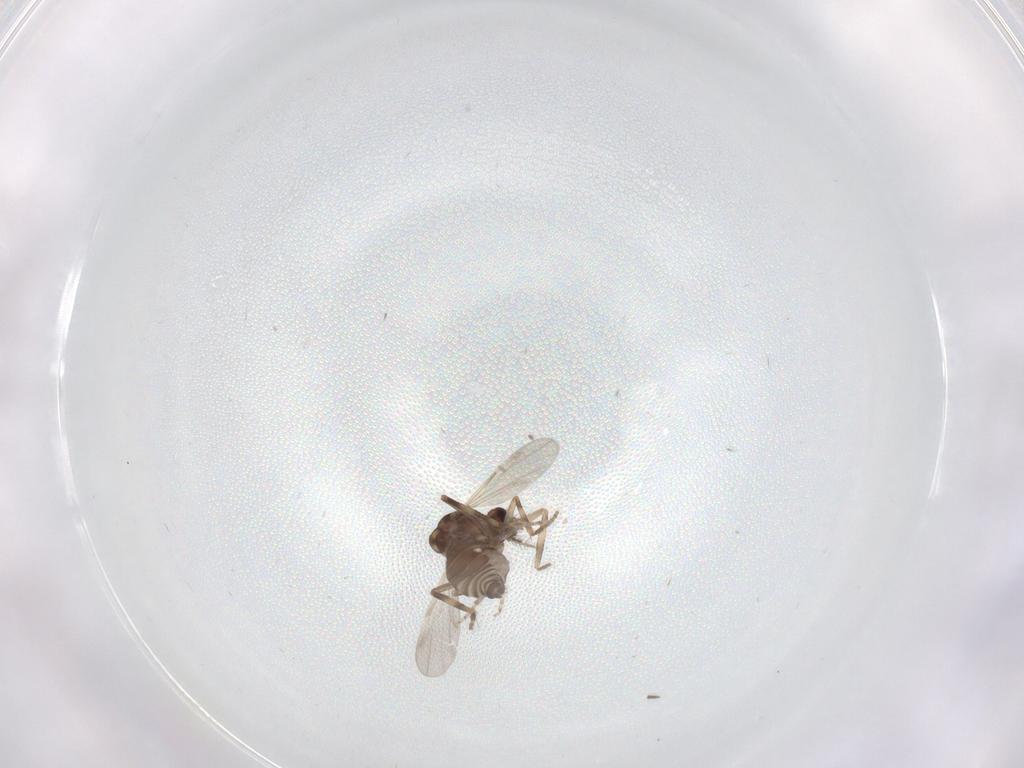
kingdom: Animalia
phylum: Arthropoda
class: Insecta
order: Diptera
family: Ceratopogonidae
